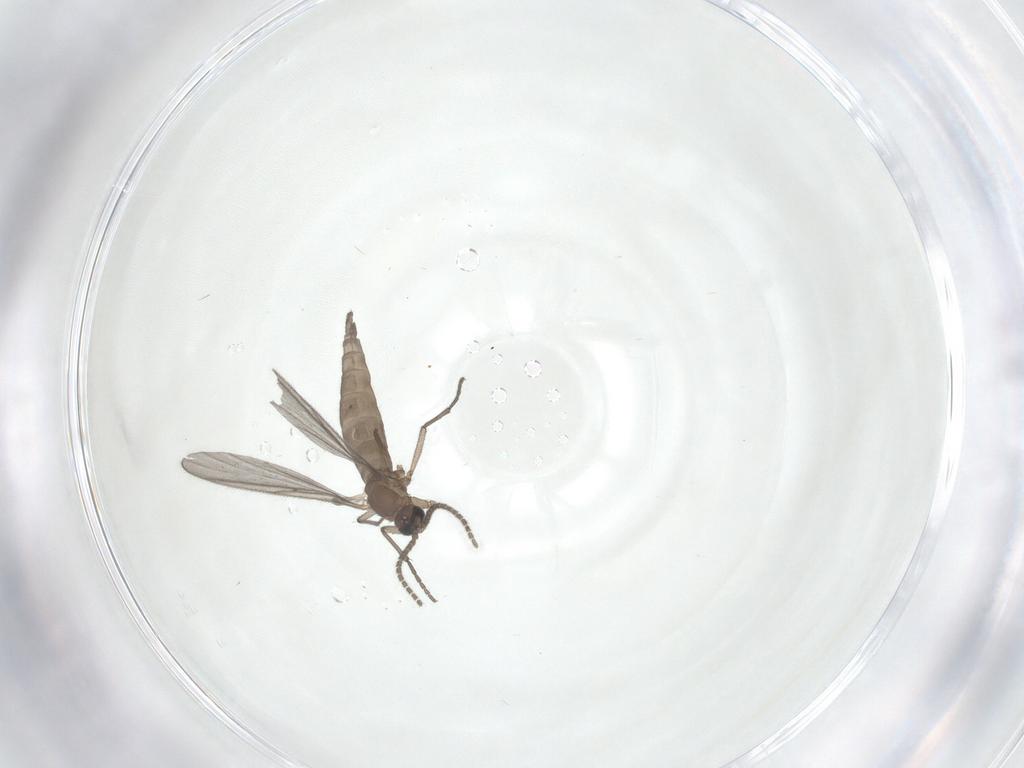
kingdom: Animalia
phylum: Arthropoda
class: Insecta
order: Diptera
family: Sciaridae
